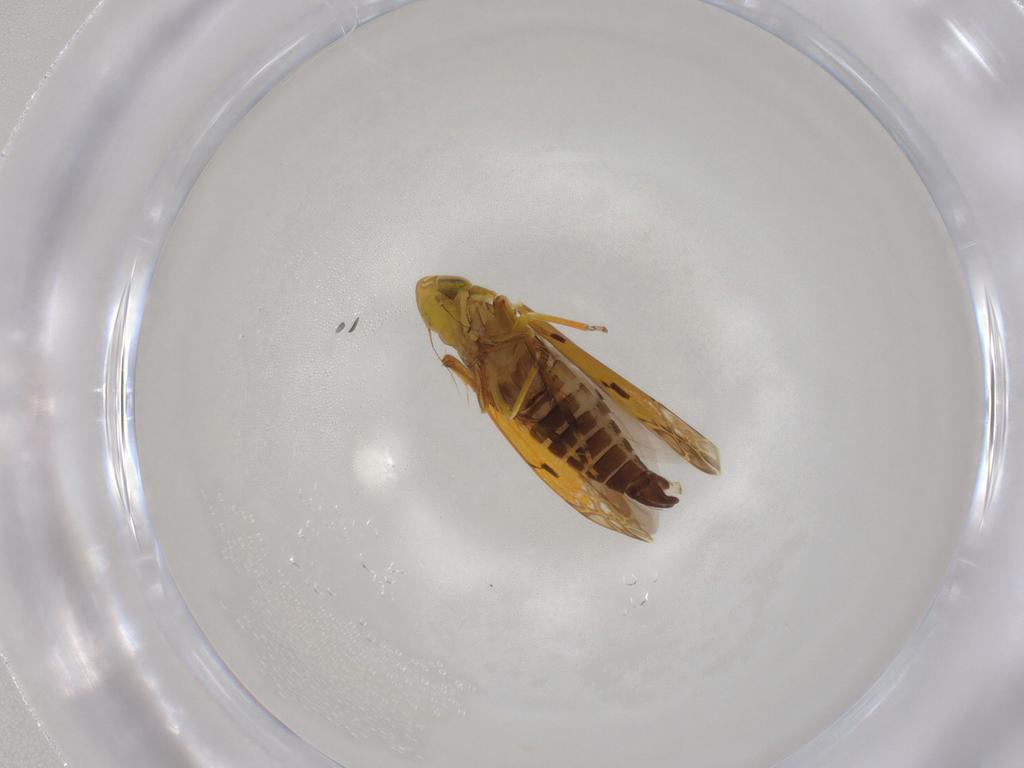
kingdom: Animalia
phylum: Arthropoda
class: Insecta
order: Hemiptera
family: Cicadellidae
